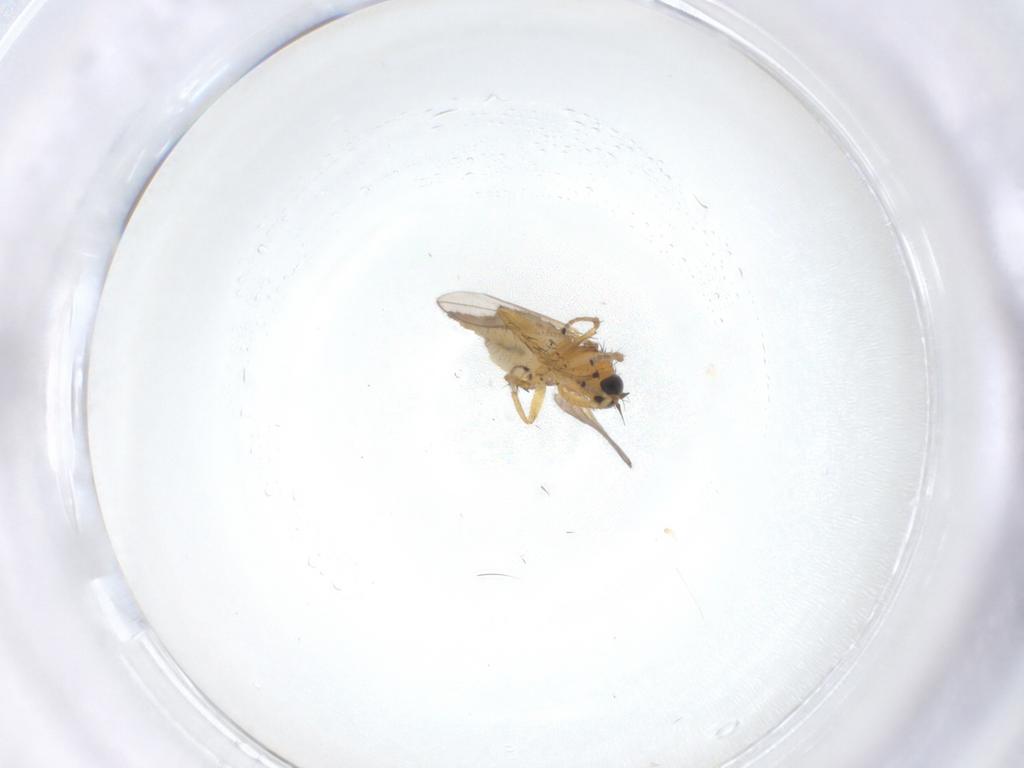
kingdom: Animalia
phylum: Arthropoda
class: Insecta
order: Diptera
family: Hybotidae
